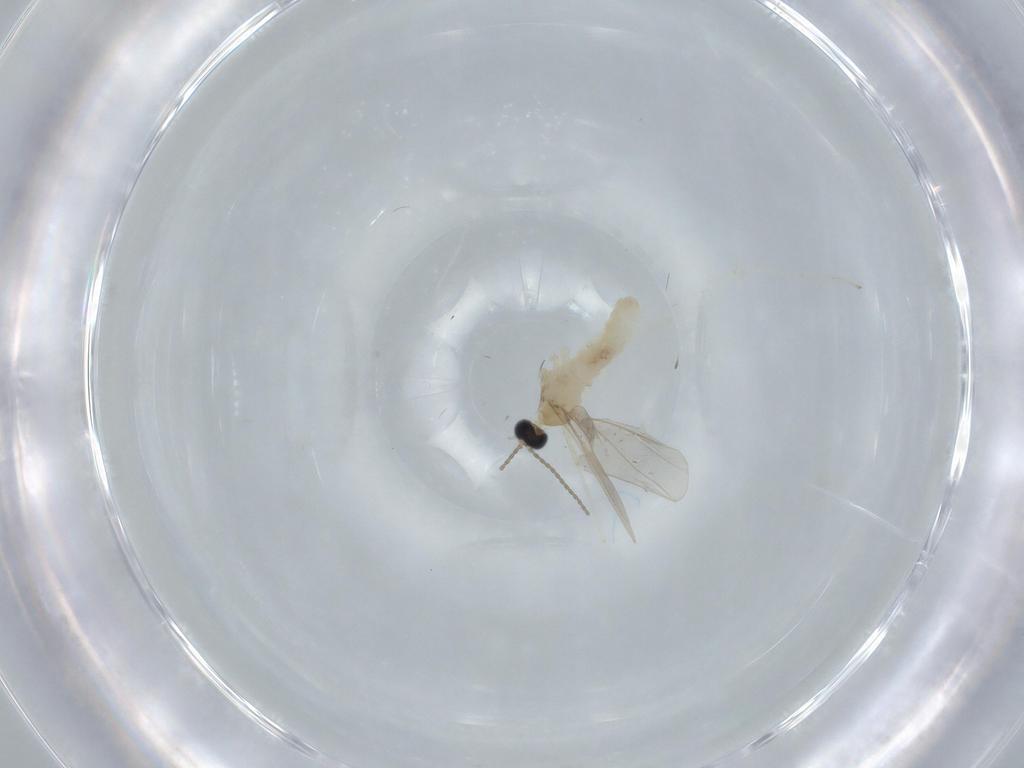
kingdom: Animalia
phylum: Arthropoda
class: Insecta
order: Diptera
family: Cecidomyiidae
